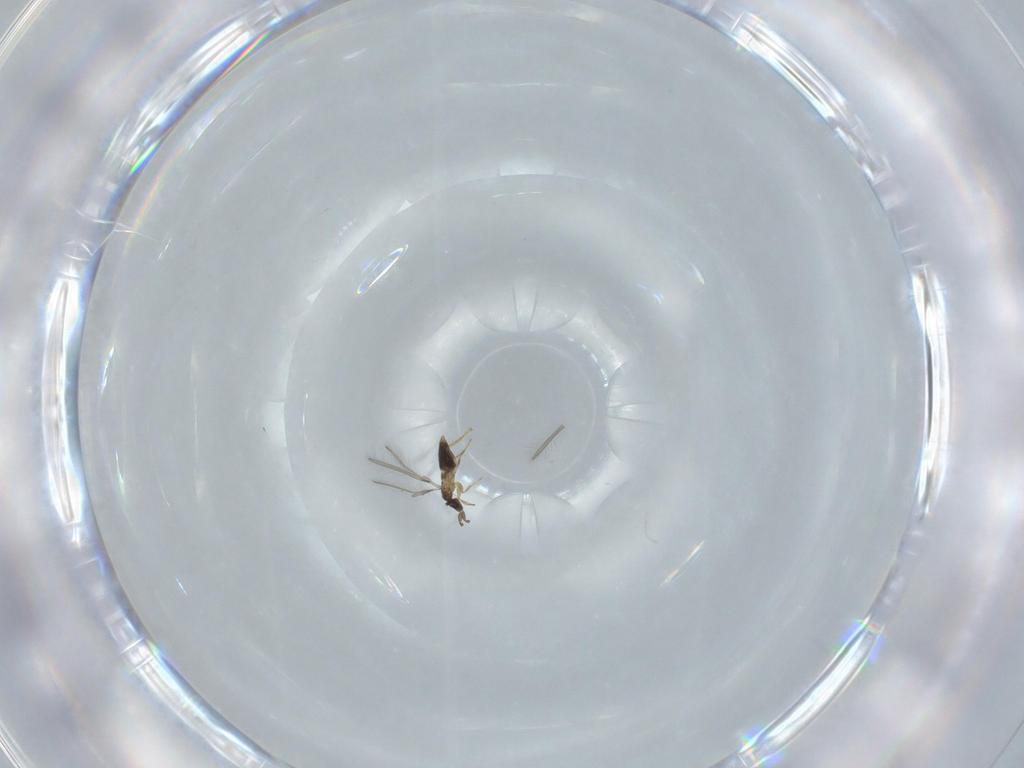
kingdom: Animalia
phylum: Arthropoda
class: Insecta
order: Hymenoptera
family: Mymaridae
